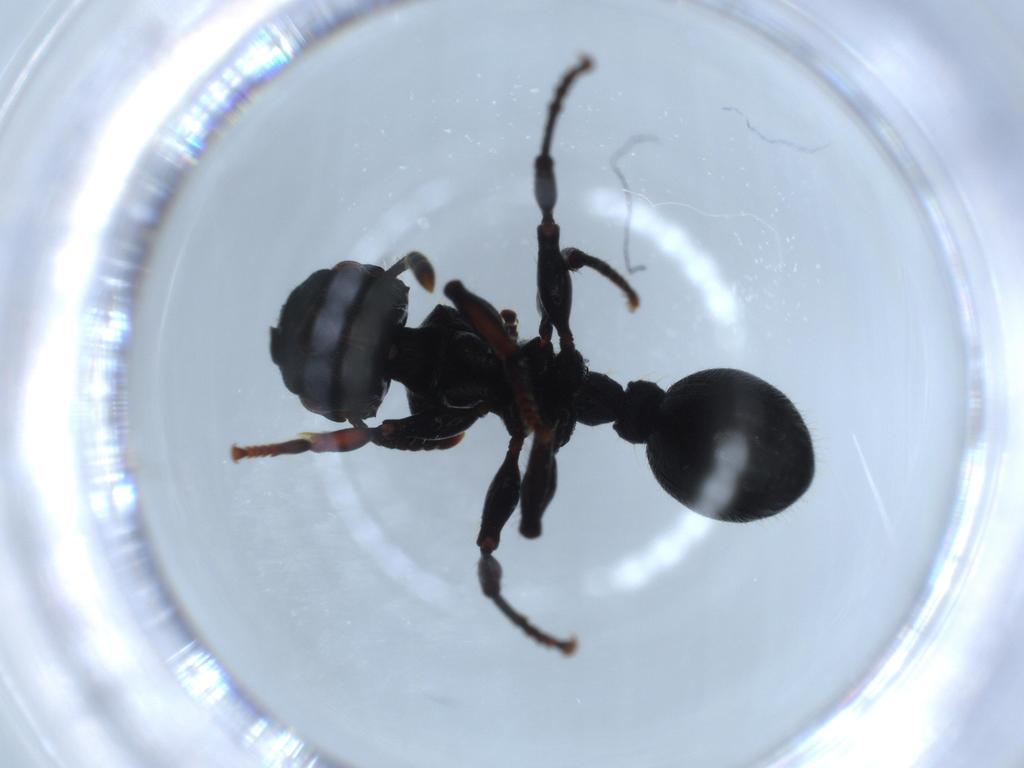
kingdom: Animalia
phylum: Arthropoda
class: Insecta
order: Hymenoptera
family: Formicidae
